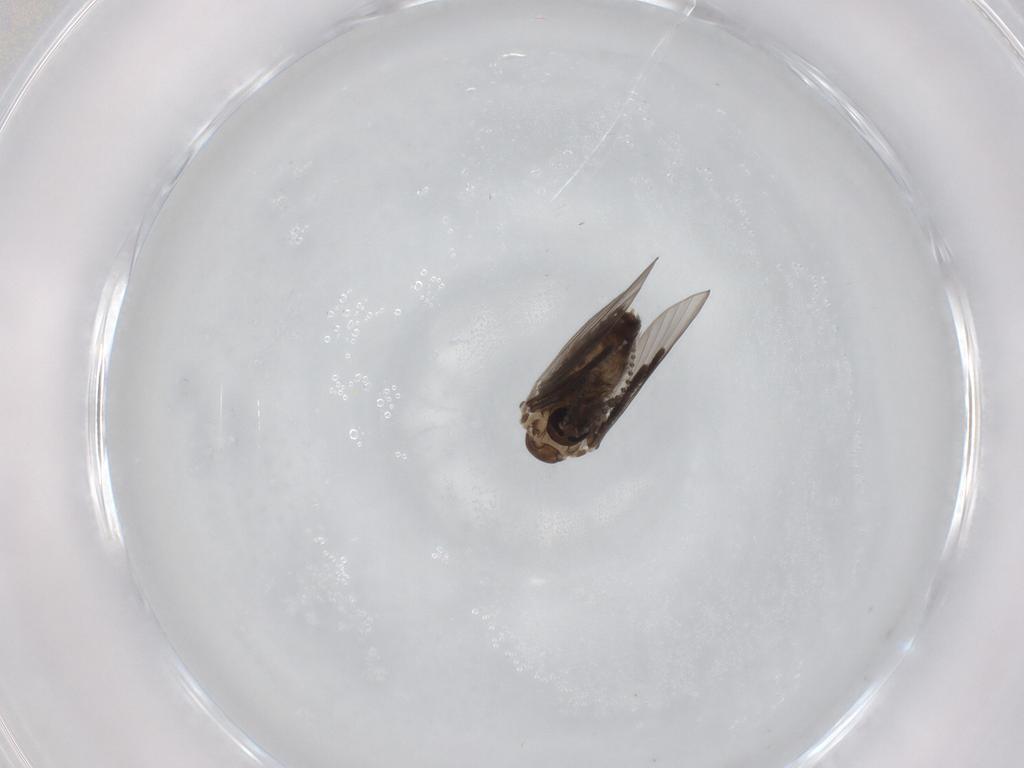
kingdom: Animalia
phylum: Arthropoda
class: Insecta
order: Diptera
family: Psychodidae
